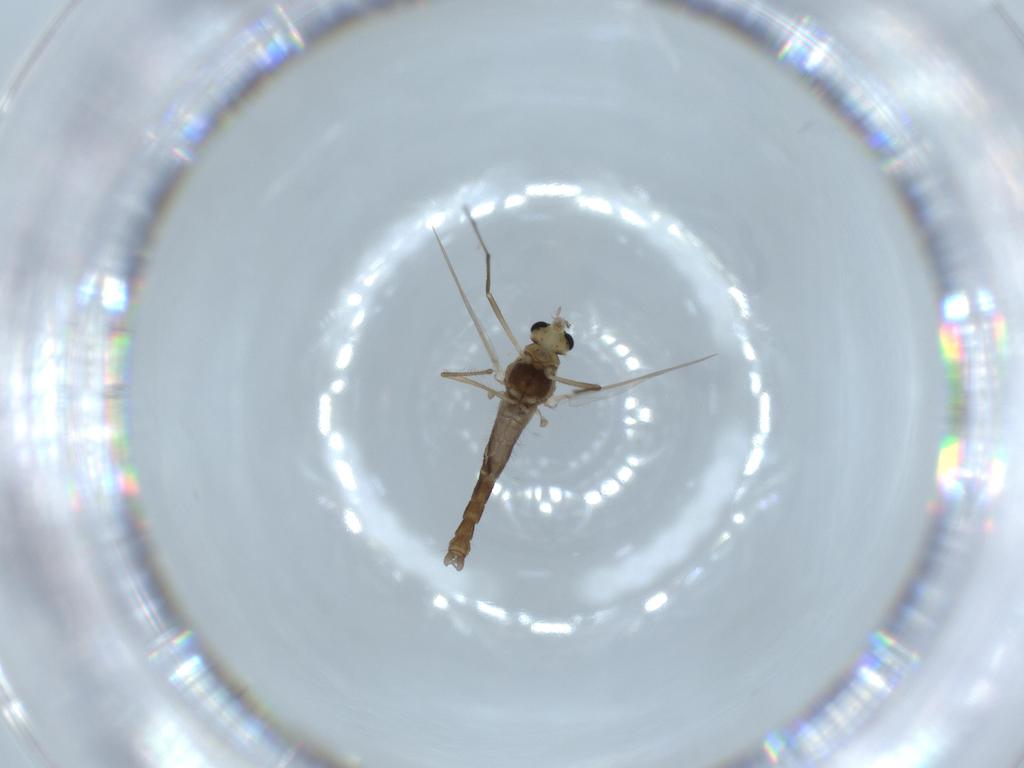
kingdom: Animalia
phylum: Arthropoda
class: Insecta
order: Diptera
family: Chironomidae
